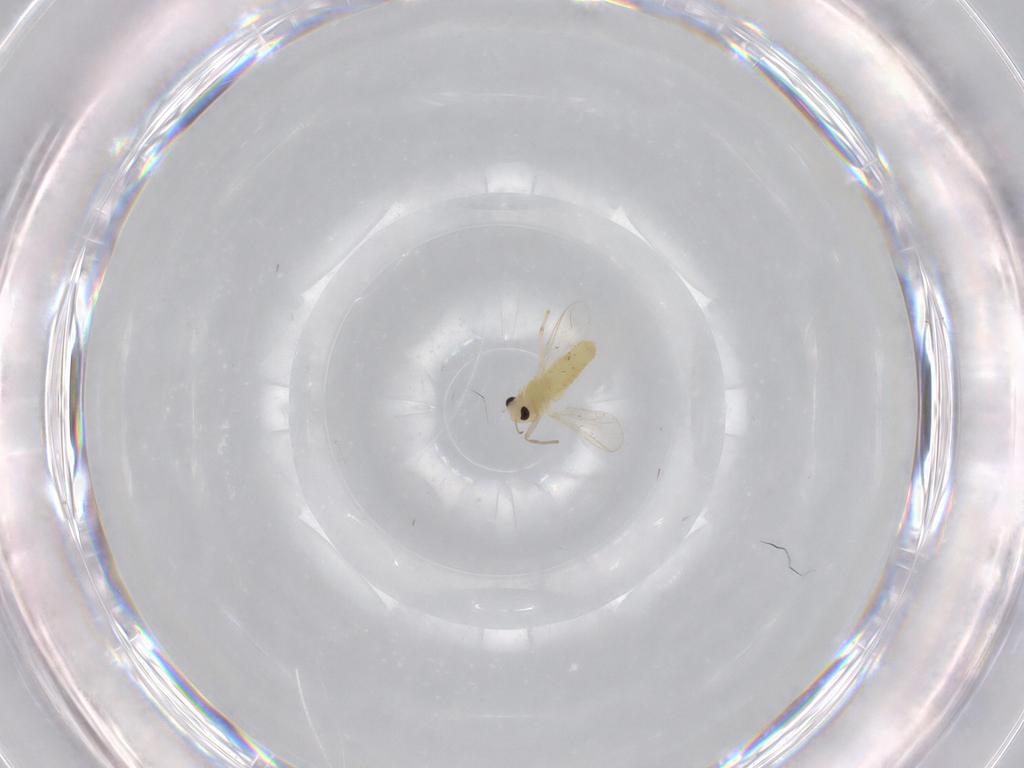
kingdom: Animalia
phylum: Arthropoda
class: Insecta
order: Diptera
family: Chironomidae
